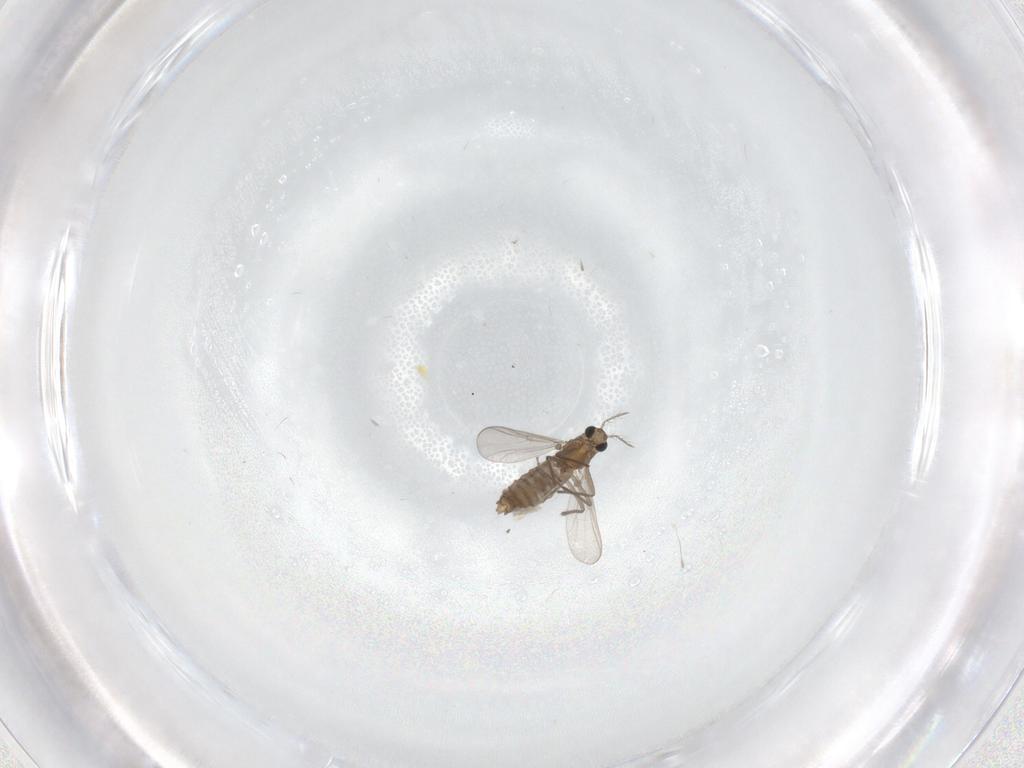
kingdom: Animalia
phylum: Arthropoda
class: Insecta
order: Diptera
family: Chironomidae
